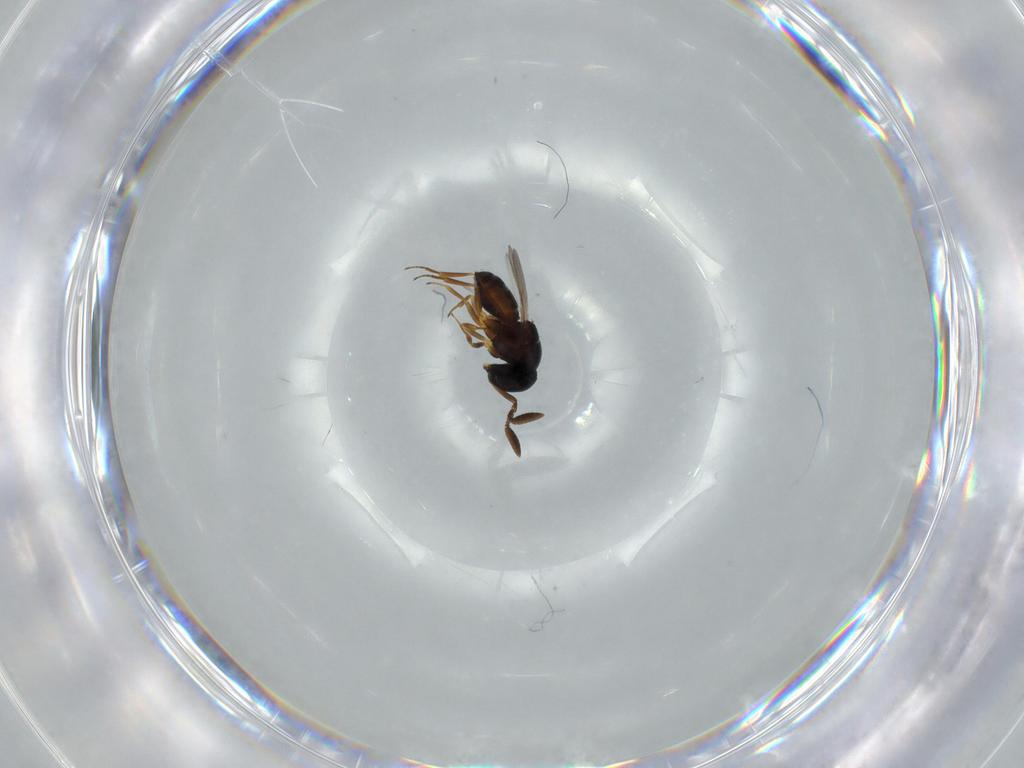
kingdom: Animalia
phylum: Arthropoda
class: Insecta
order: Hymenoptera
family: Scelionidae
